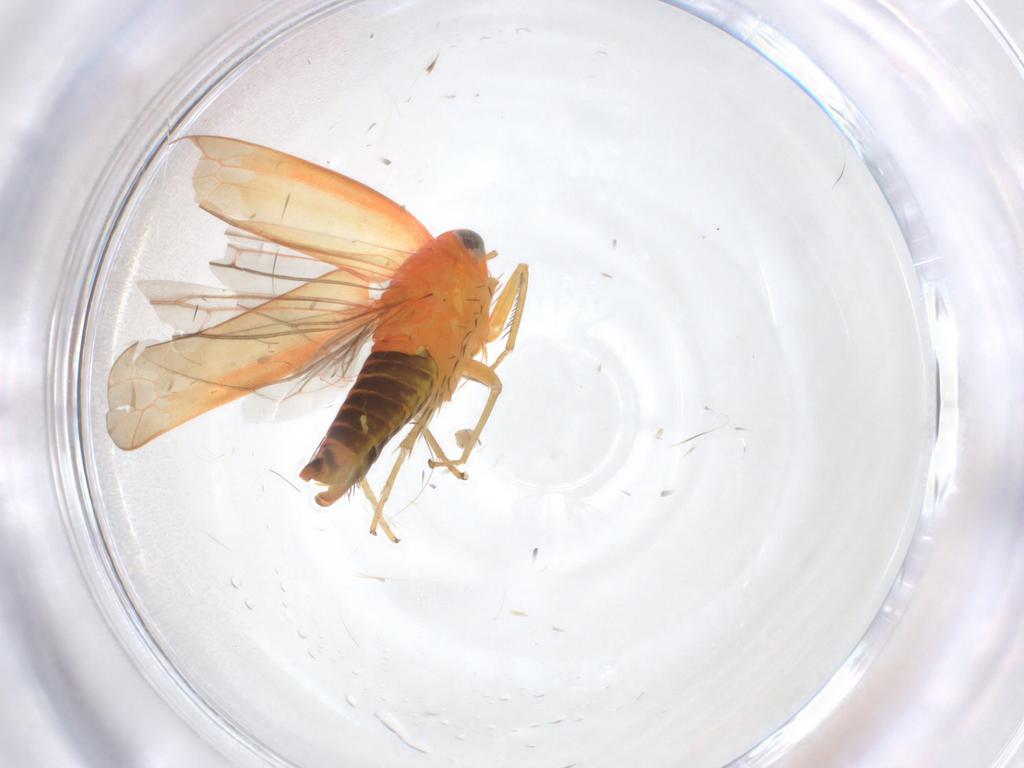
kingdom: Animalia
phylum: Arthropoda
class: Insecta
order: Hemiptera
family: Cicadellidae
